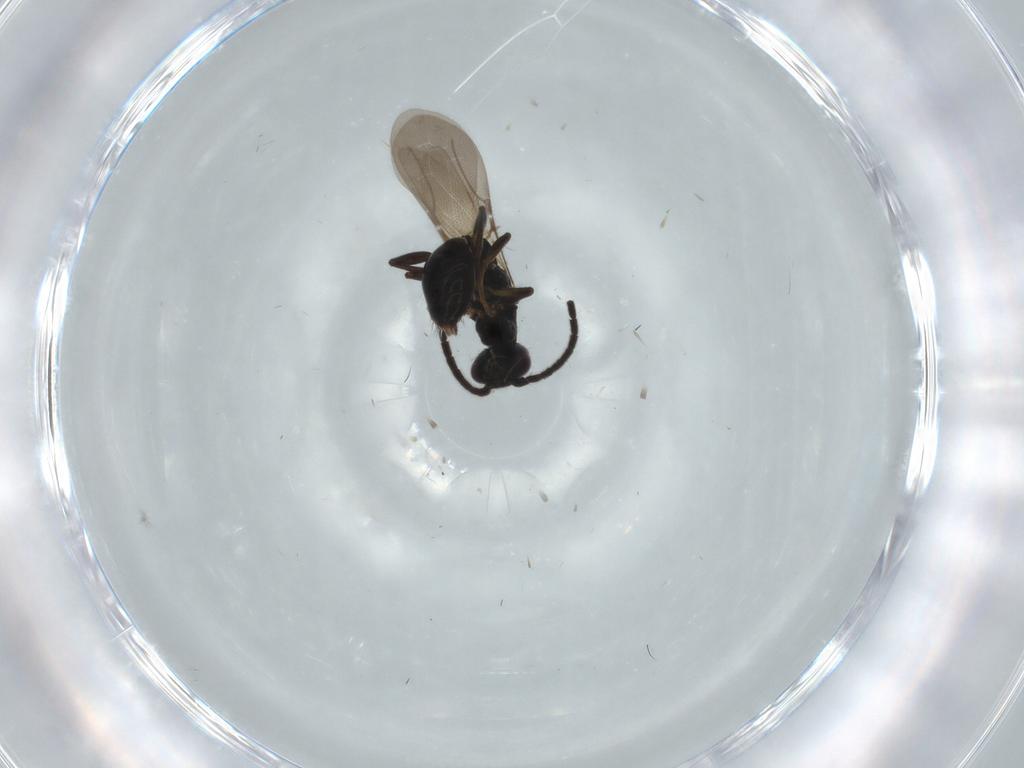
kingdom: Animalia
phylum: Arthropoda
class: Insecta
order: Hymenoptera
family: Bethylidae
